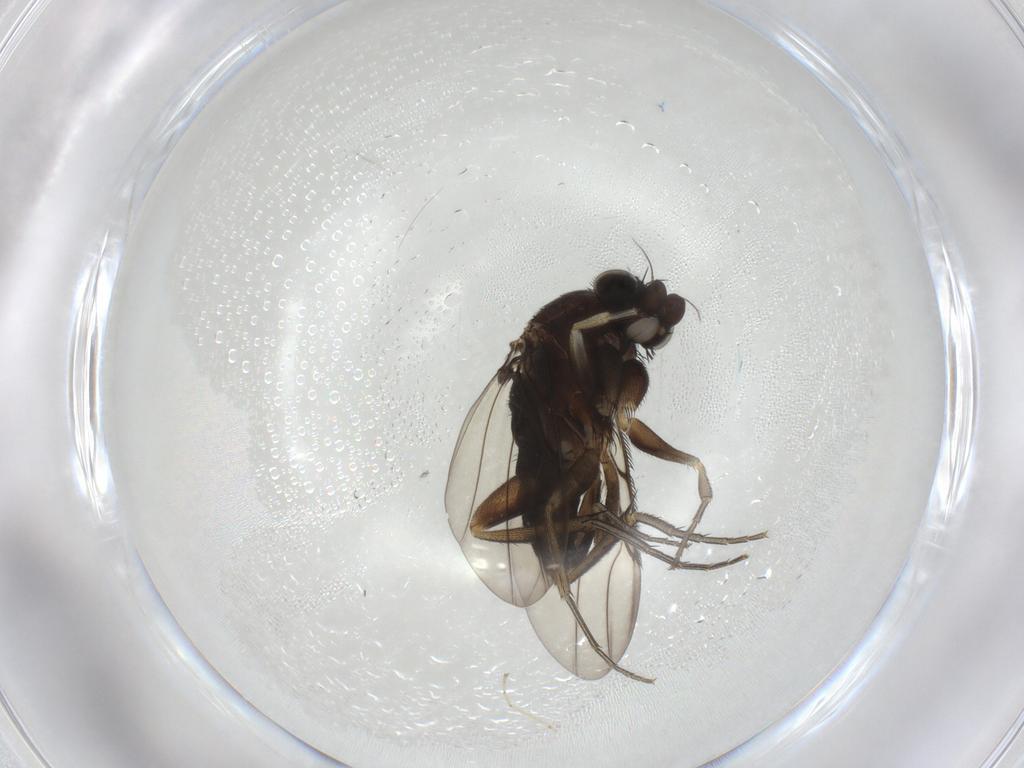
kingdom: Animalia
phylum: Arthropoda
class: Insecta
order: Diptera
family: Phoridae
